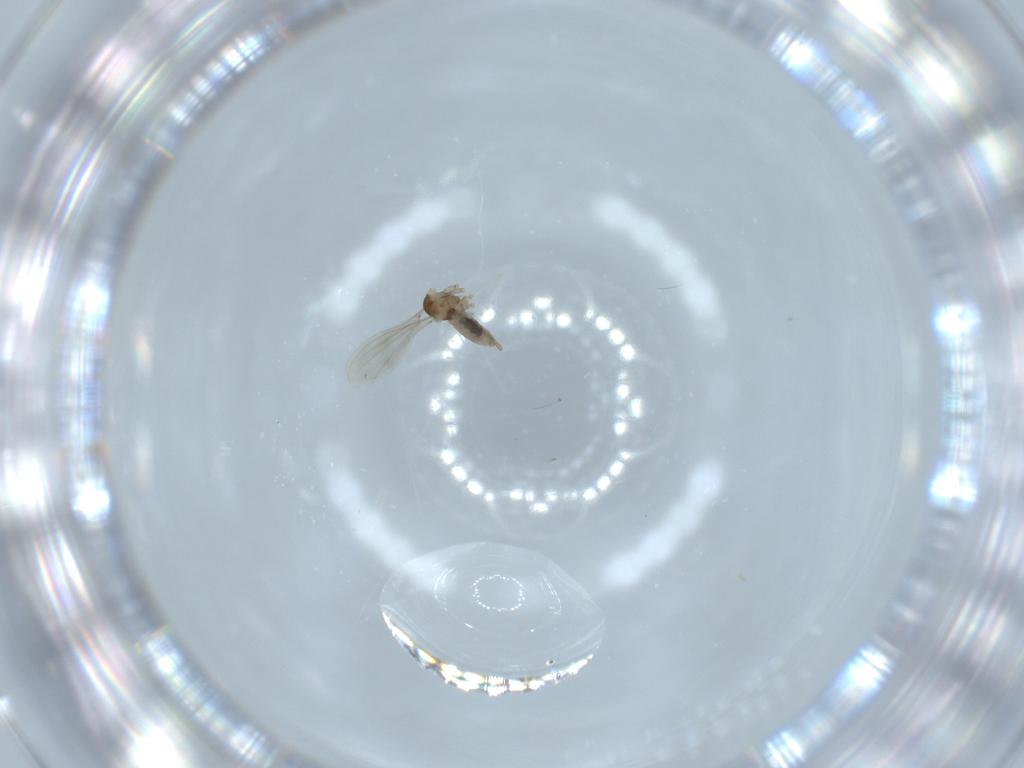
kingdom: Animalia
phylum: Arthropoda
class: Insecta
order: Diptera
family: Cecidomyiidae
